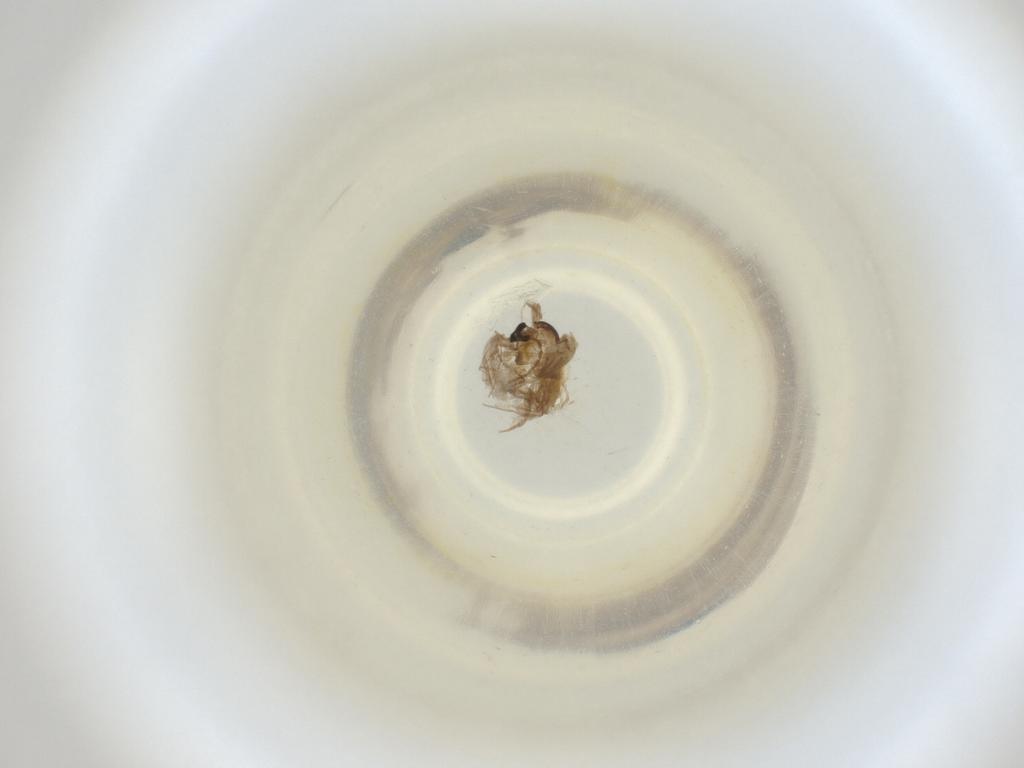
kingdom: Animalia
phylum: Arthropoda
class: Insecta
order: Diptera
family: Cecidomyiidae
